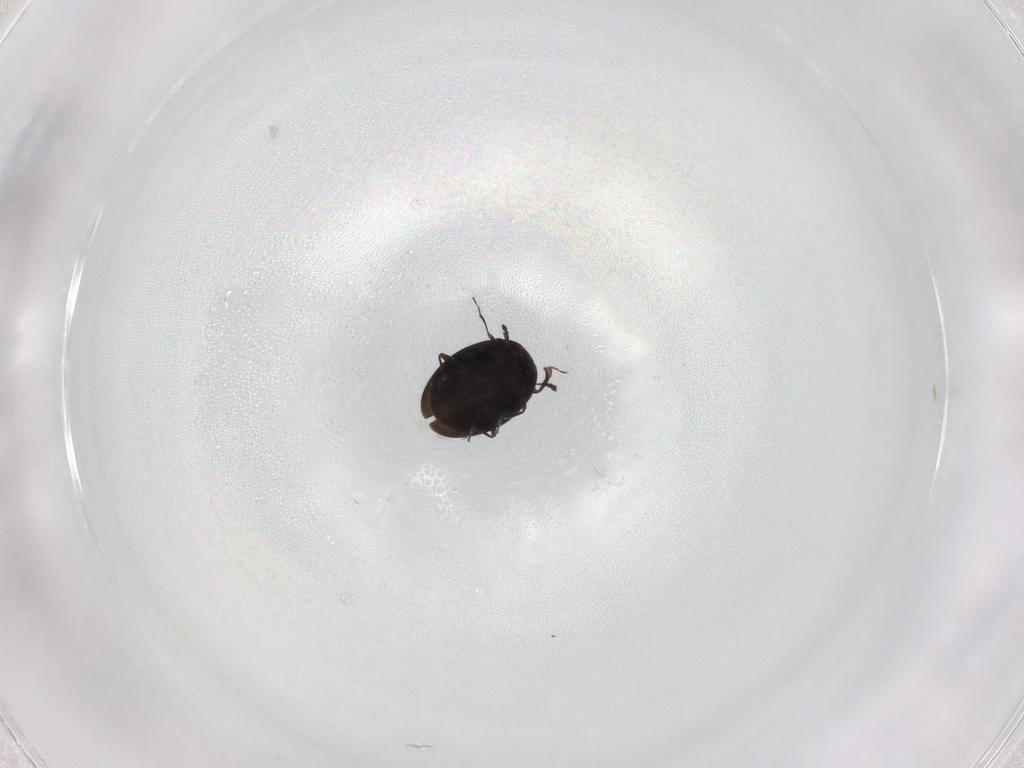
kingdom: Animalia
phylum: Arthropoda
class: Insecta
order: Coleoptera
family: Corylophidae
